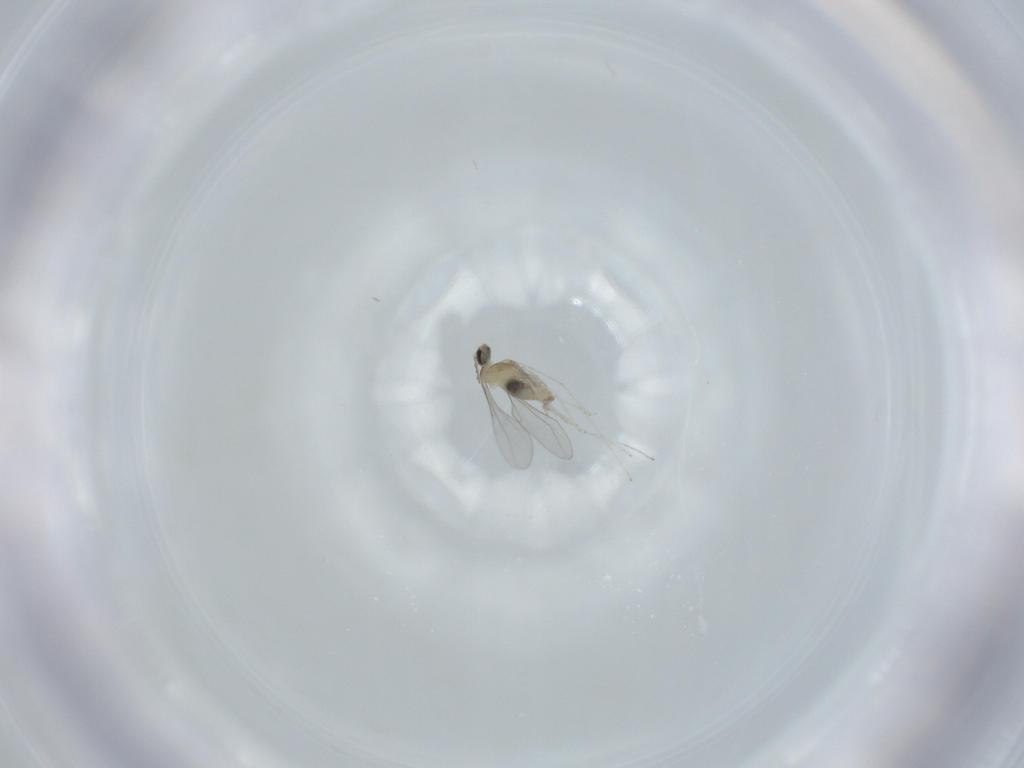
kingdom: Animalia
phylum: Arthropoda
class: Insecta
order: Diptera
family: Cecidomyiidae
